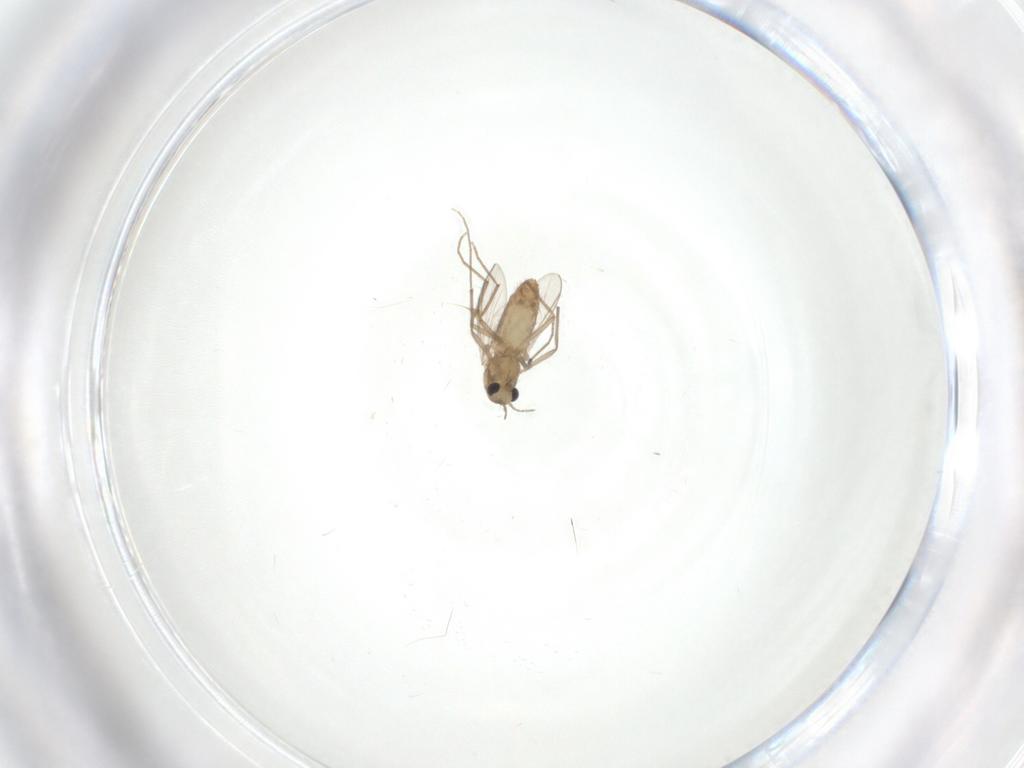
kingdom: Animalia
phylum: Arthropoda
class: Insecta
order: Diptera
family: Chironomidae
